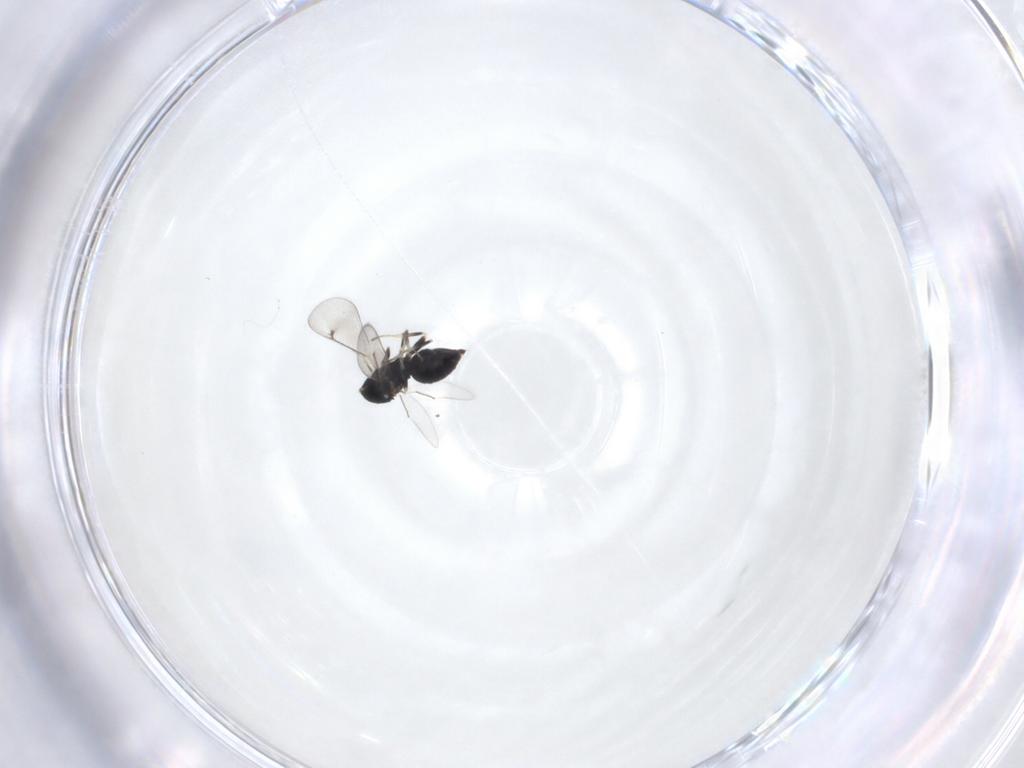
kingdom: Animalia
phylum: Arthropoda
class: Insecta
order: Hymenoptera
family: Eulophidae
